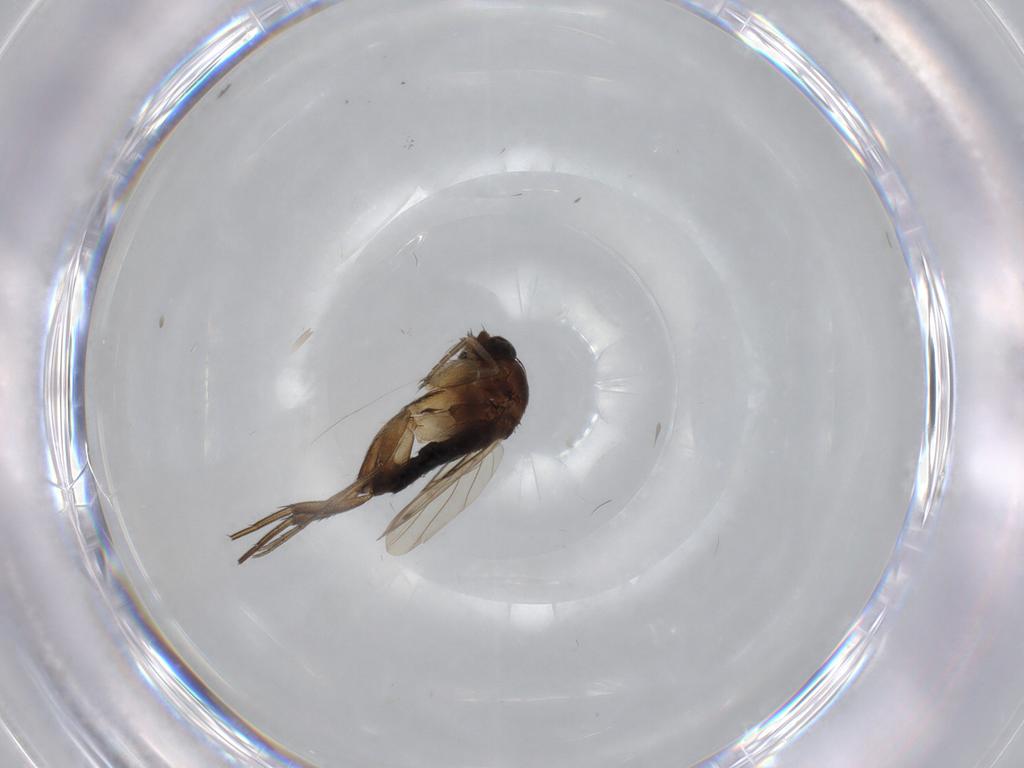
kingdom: Animalia
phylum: Arthropoda
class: Insecta
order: Diptera
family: Phoridae
